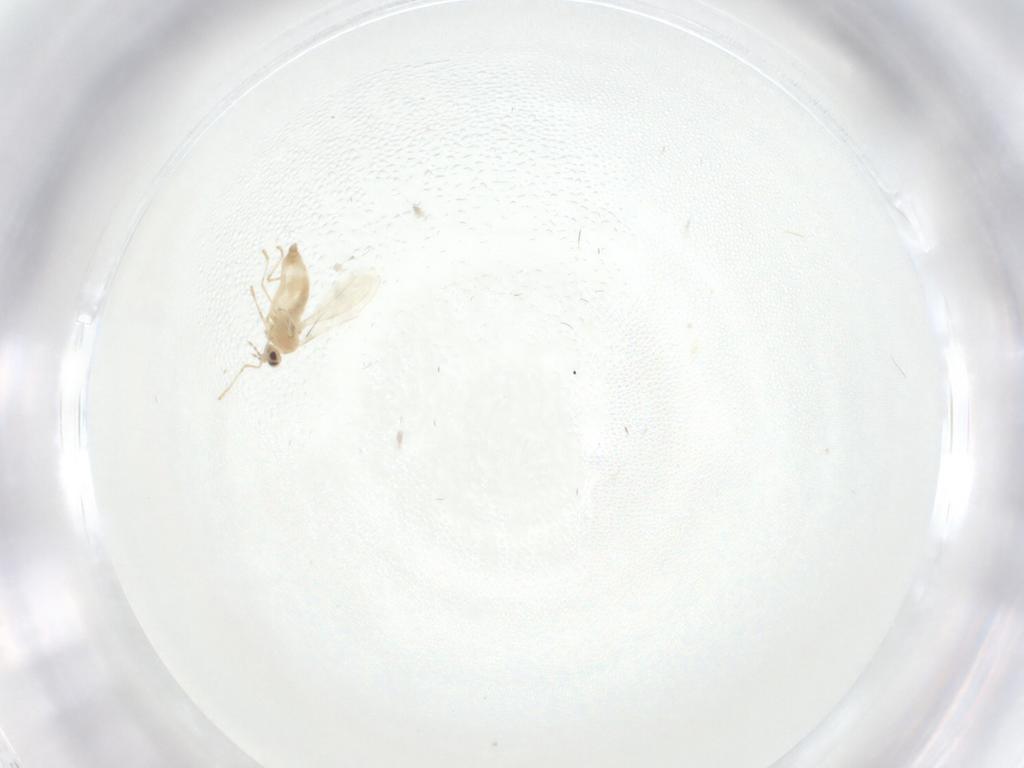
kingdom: Animalia
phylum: Arthropoda
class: Insecta
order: Diptera
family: Cecidomyiidae
